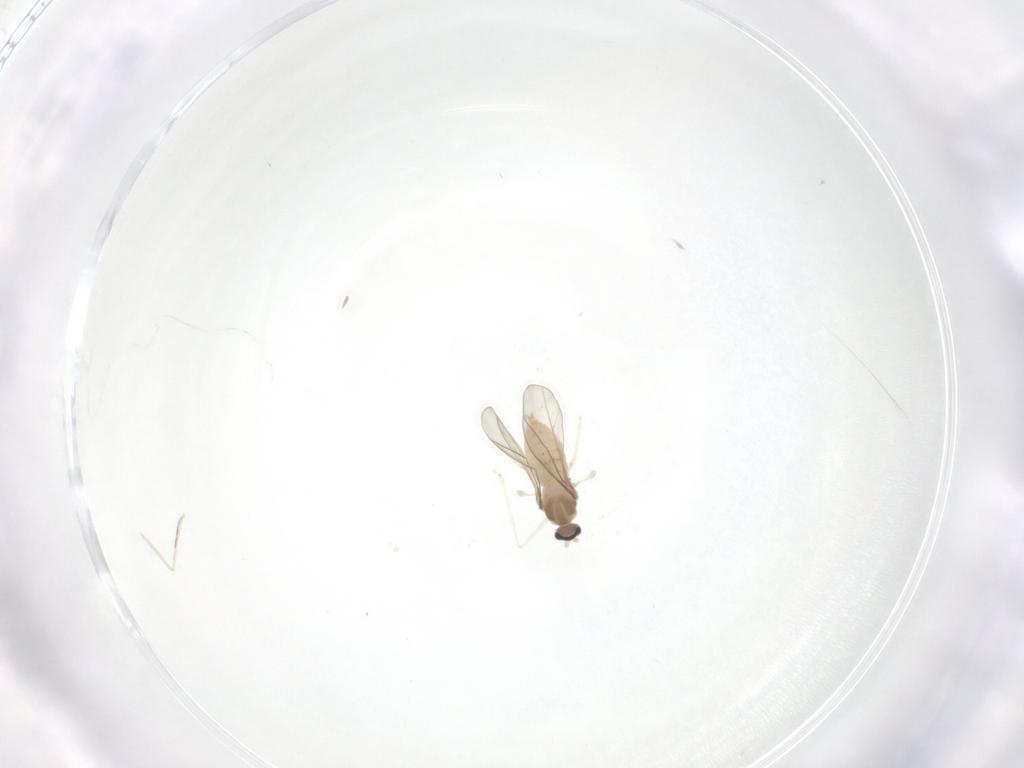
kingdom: Animalia
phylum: Arthropoda
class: Insecta
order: Diptera
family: Cecidomyiidae
